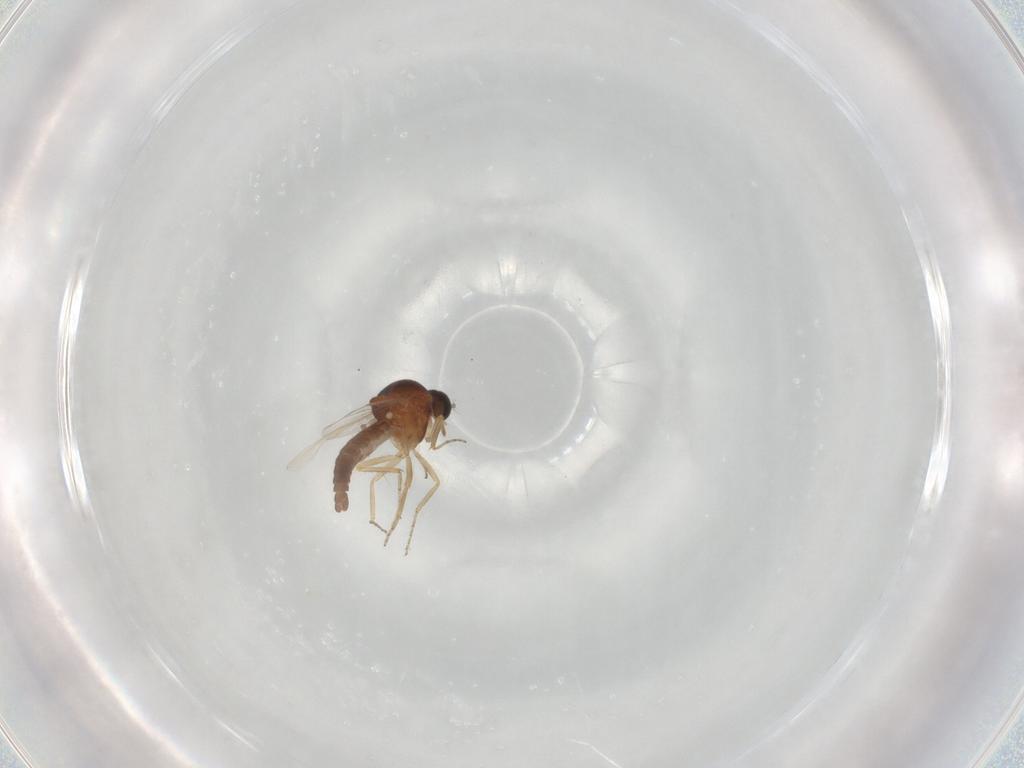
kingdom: Animalia
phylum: Arthropoda
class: Insecta
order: Diptera
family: Ceratopogonidae
